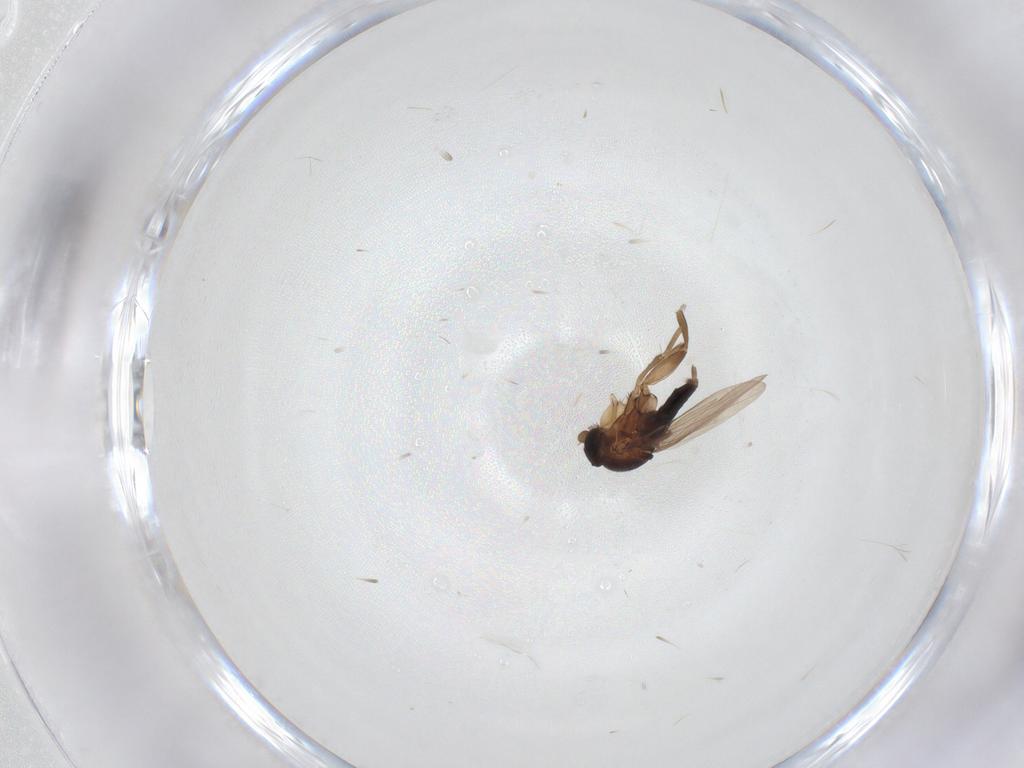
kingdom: Animalia
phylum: Arthropoda
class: Insecta
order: Diptera
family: Phoridae
